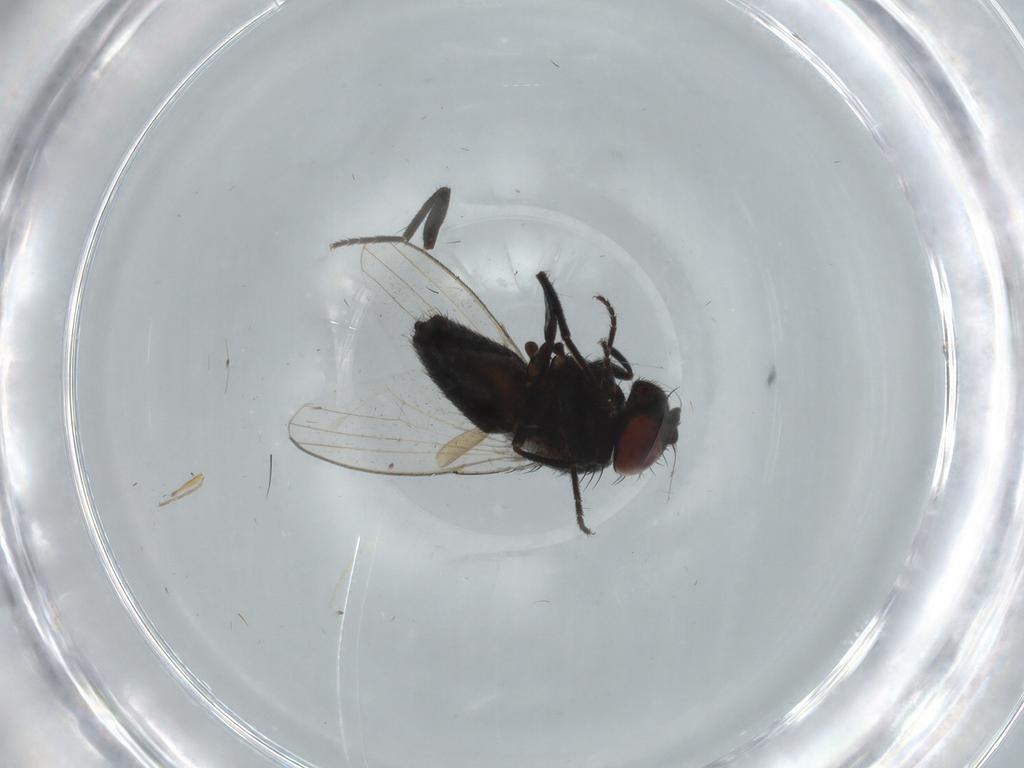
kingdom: Animalia
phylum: Arthropoda
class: Insecta
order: Diptera
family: Milichiidae
